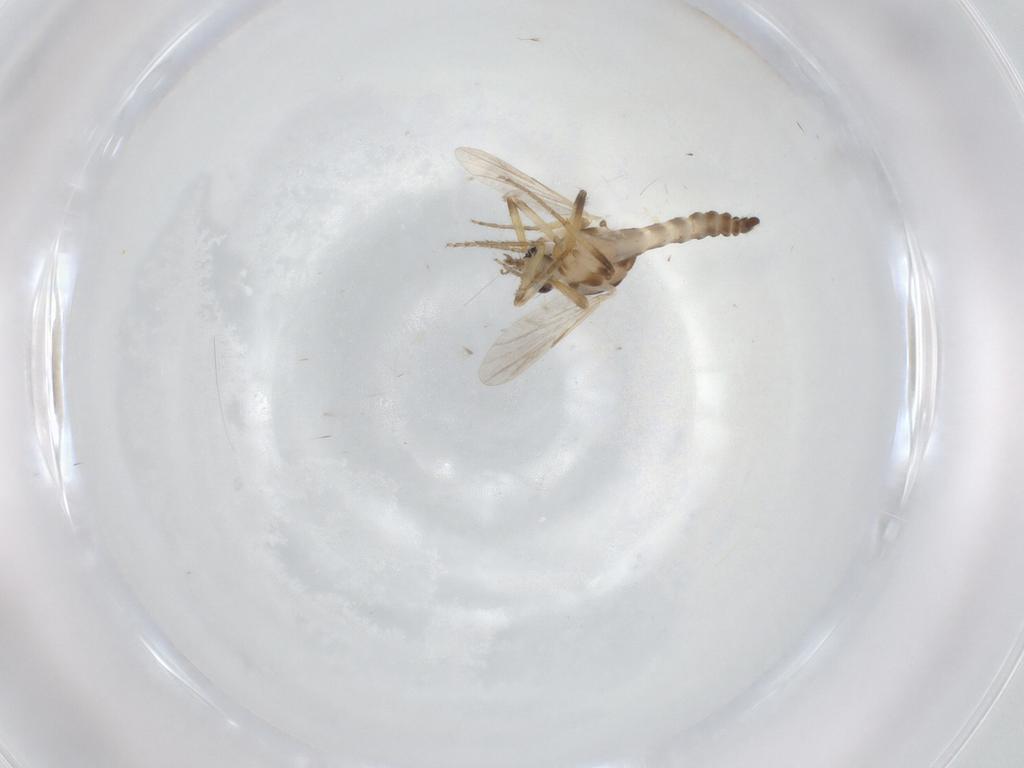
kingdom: Animalia
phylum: Arthropoda
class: Insecta
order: Diptera
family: Ceratopogonidae
